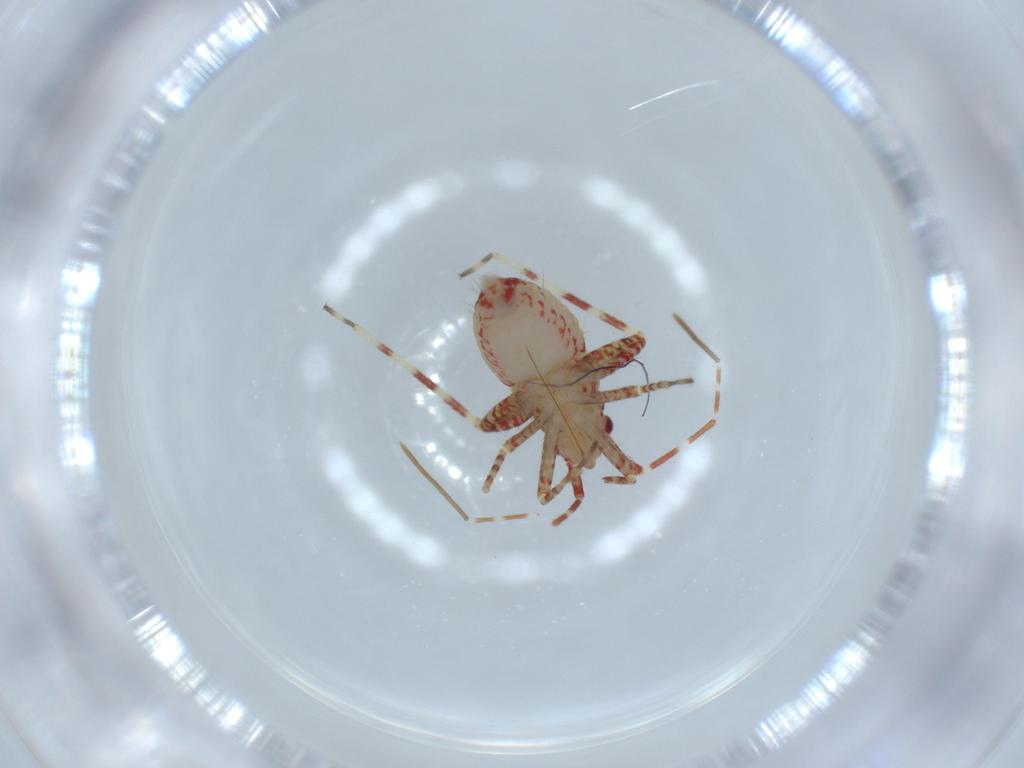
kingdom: Animalia
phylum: Arthropoda
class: Insecta
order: Hemiptera
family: Miridae
